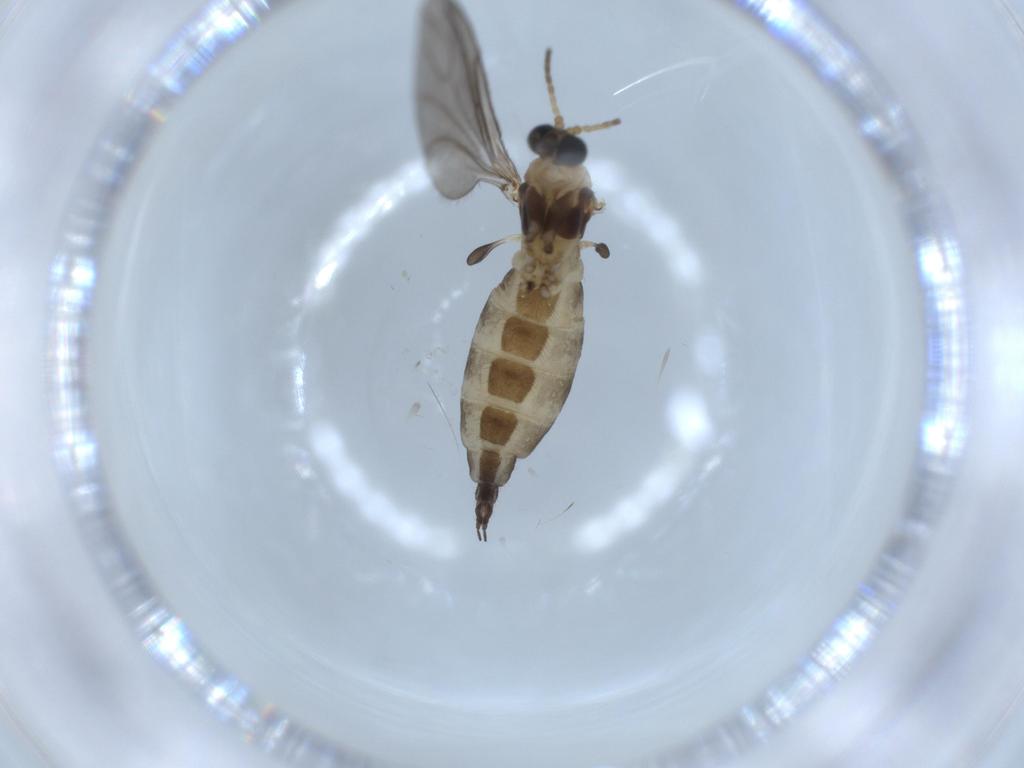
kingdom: Animalia
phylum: Arthropoda
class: Insecta
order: Diptera
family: Sciaridae
